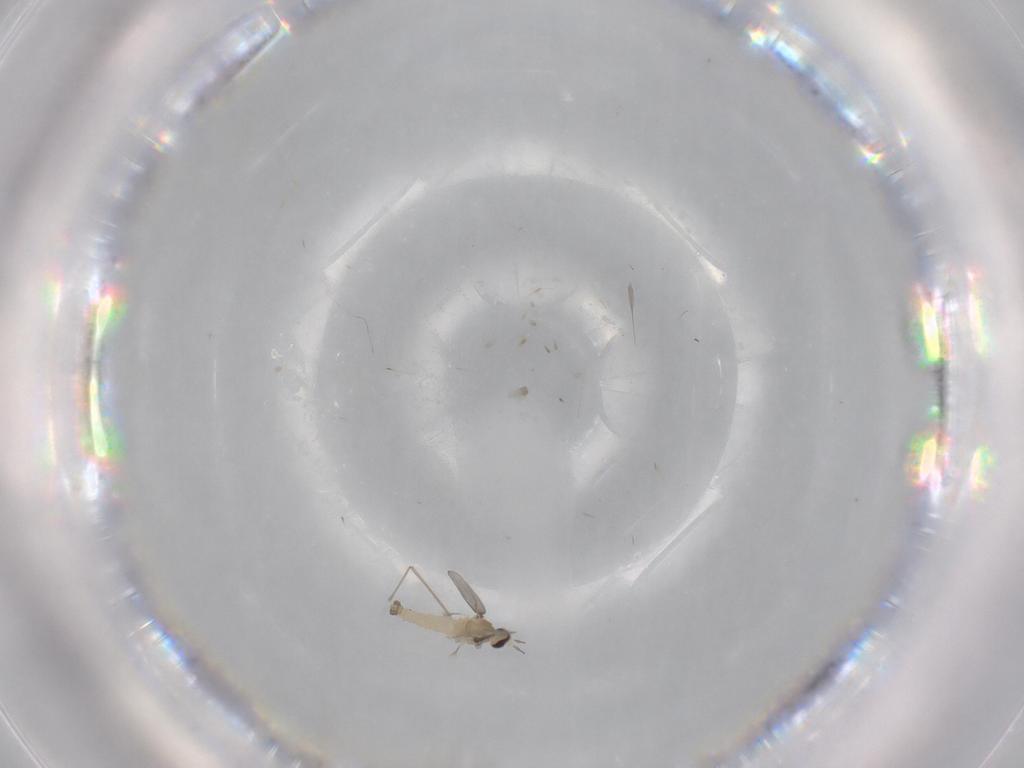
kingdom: Animalia
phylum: Arthropoda
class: Insecta
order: Diptera
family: Cecidomyiidae
